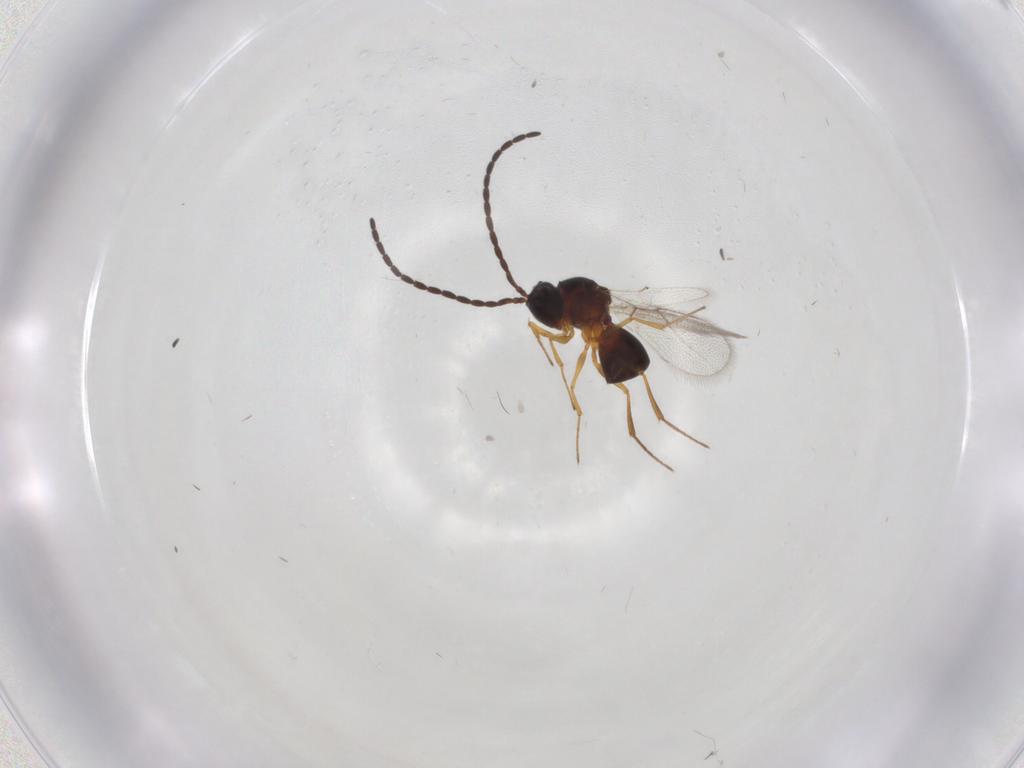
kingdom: Animalia
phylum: Arthropoda
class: Insecta
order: Hymenoptera
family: Figitidae
